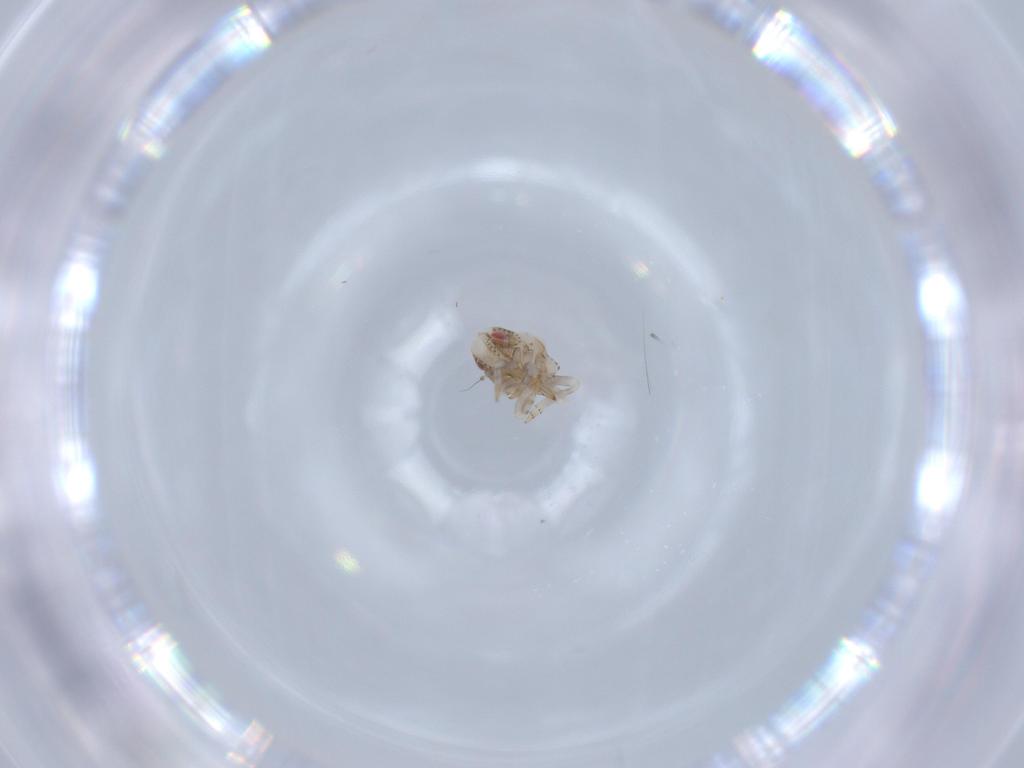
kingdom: Animalia
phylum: Arthropoda
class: Insecta
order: Hemiptera
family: Acanaloniidae
